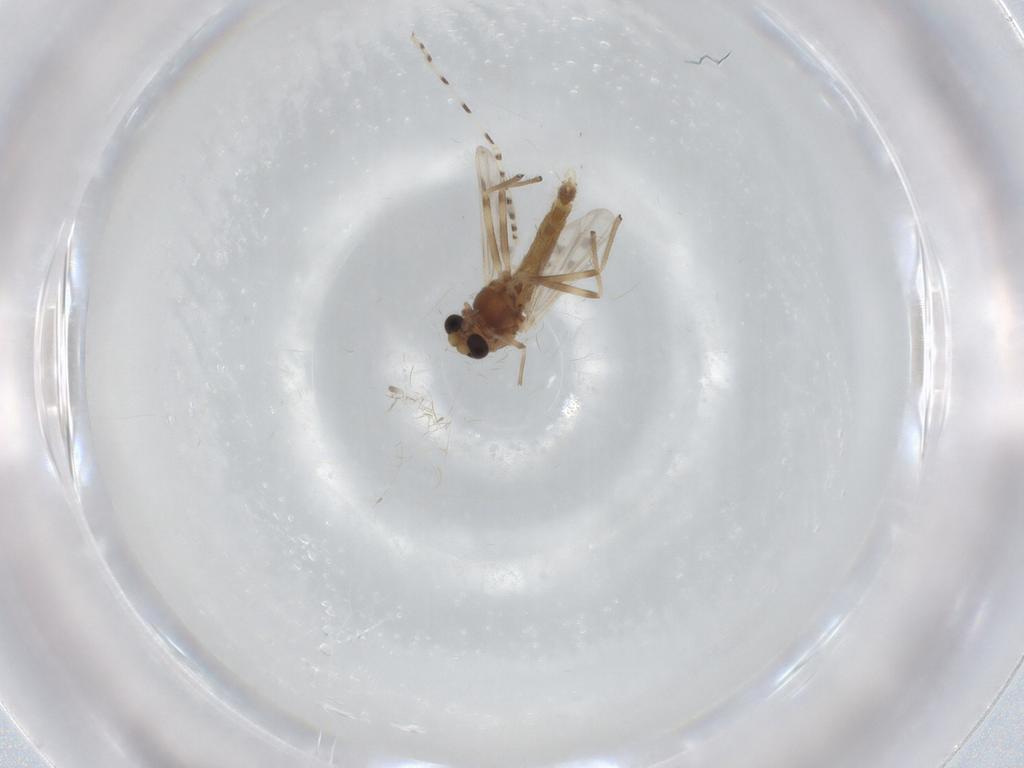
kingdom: Animalia
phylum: Arthropoda
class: Insecta
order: Diptera
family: Chironomidae
